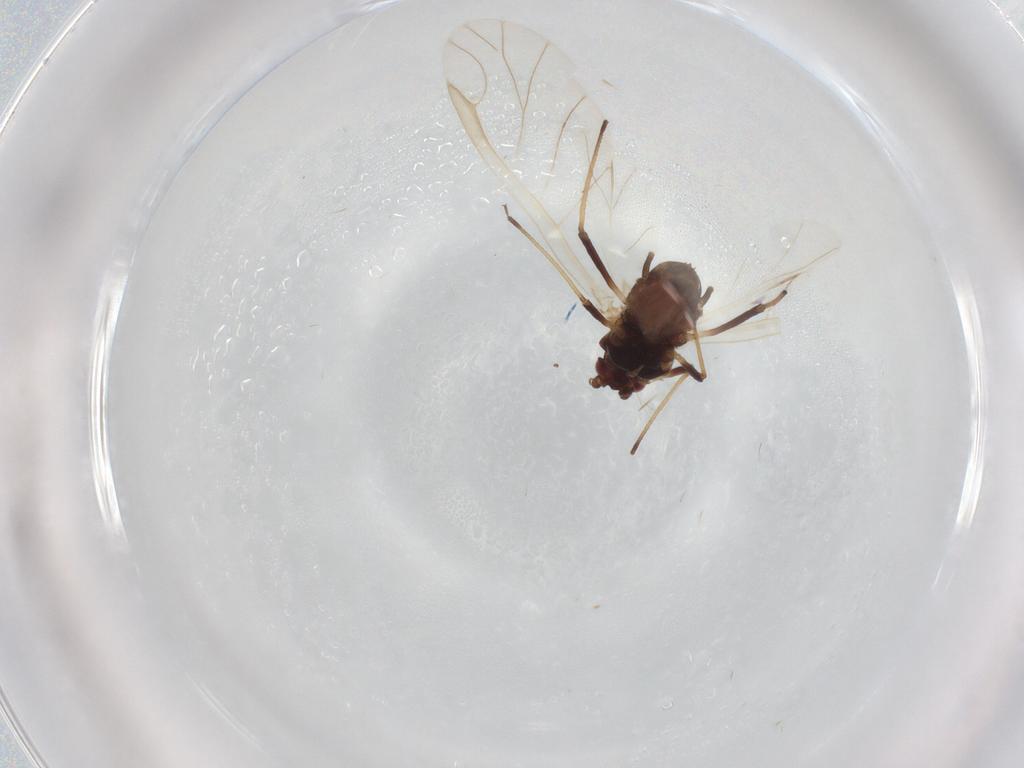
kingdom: Animalia
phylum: Arthropoda
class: Insecta
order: Hemiptera
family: Aphididae
